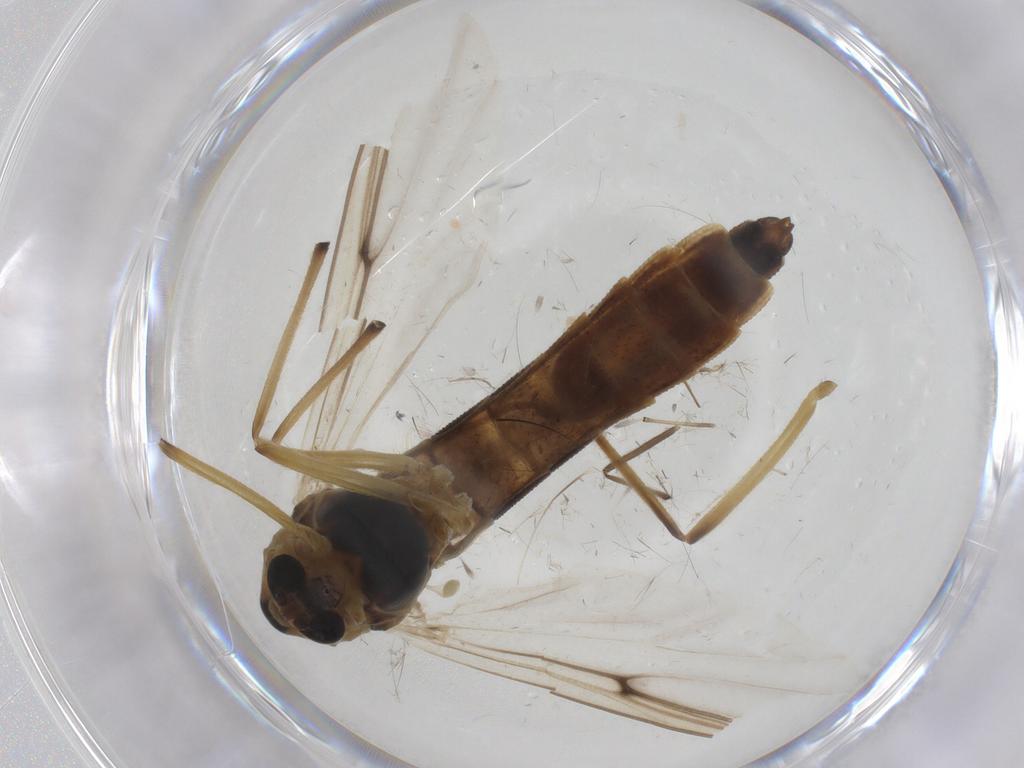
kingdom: Animalia
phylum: Arthropoda
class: Insecta
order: Diptera
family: Chironomidae
